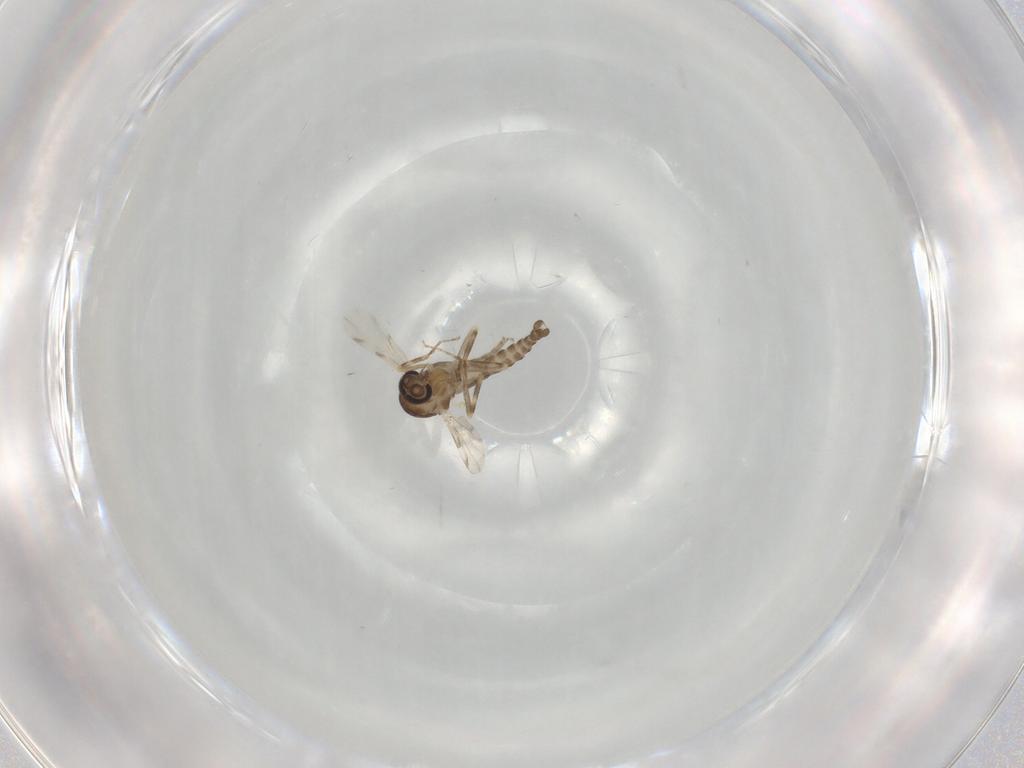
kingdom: Animalia
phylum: Arthropoda
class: Insecta
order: Diptera
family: Ceratopogonidae
